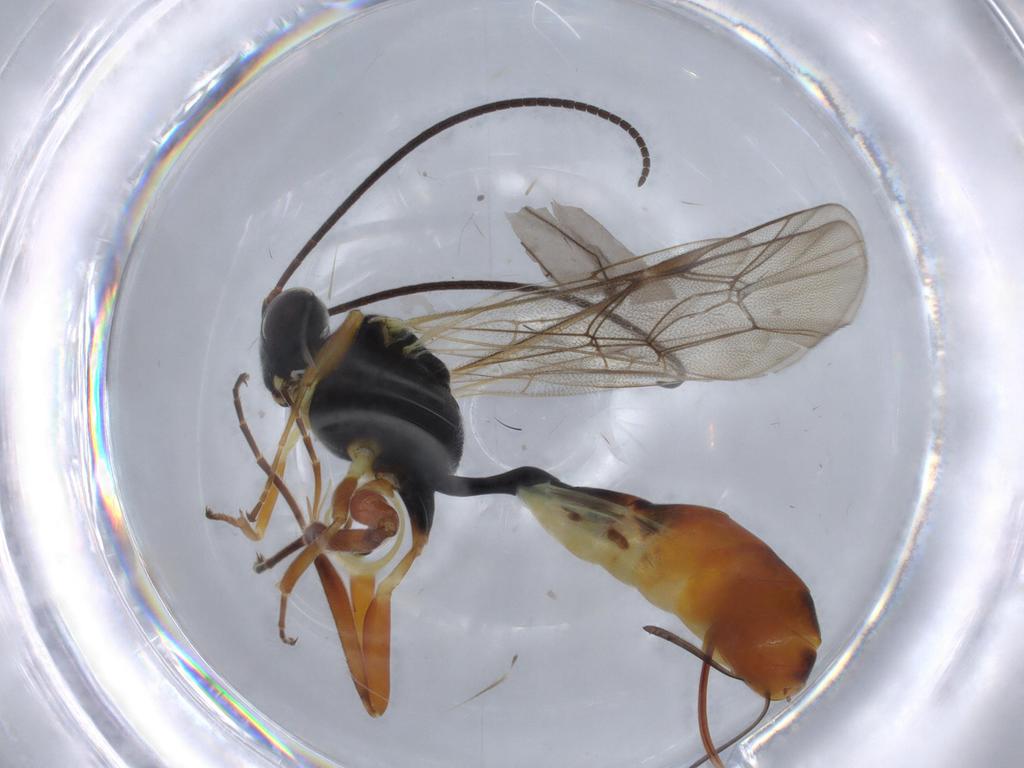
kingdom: Animalia
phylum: Arthropoda
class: Insecta
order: Hymenoptera
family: Ichneumonidae
